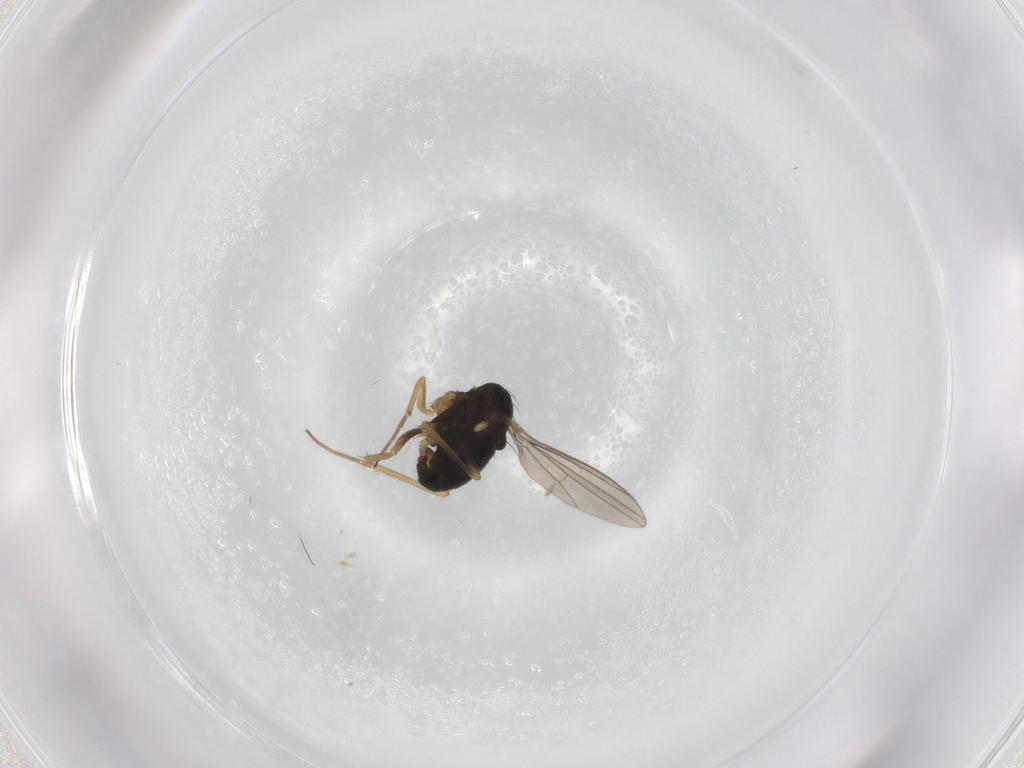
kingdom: Animalia
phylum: Arthropoda
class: Insecta
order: Diptera
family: Dolichopodidae
